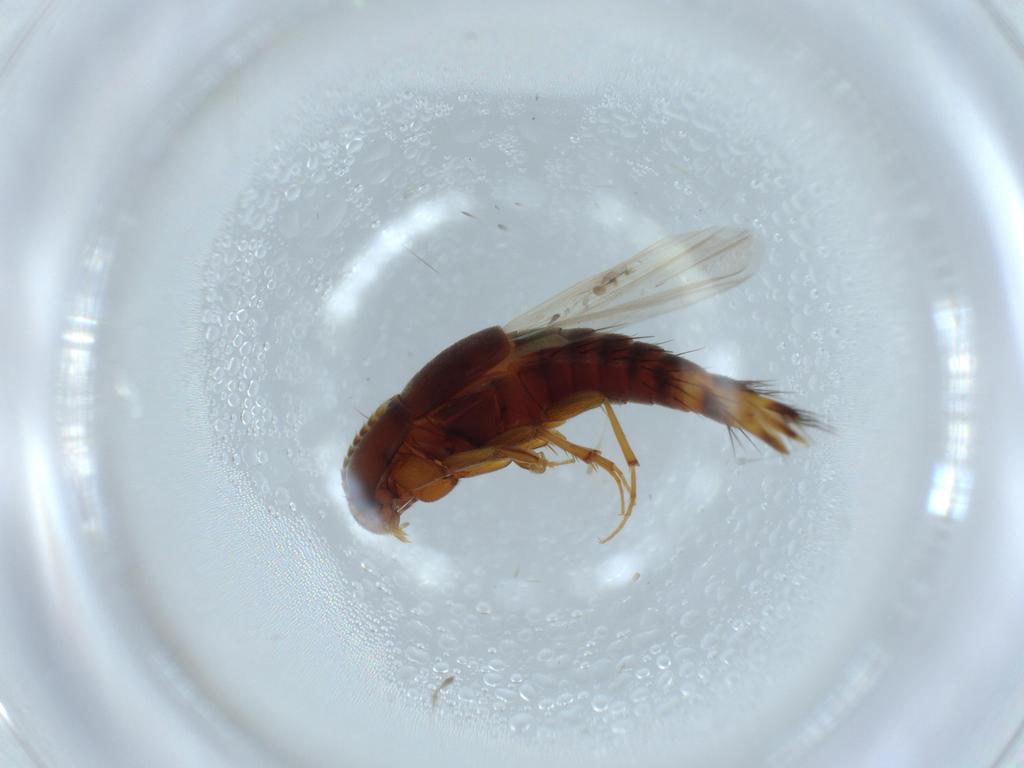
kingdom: Animalia
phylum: Arthropoda
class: Insecta
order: Coleoptera
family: Staphylinidae
